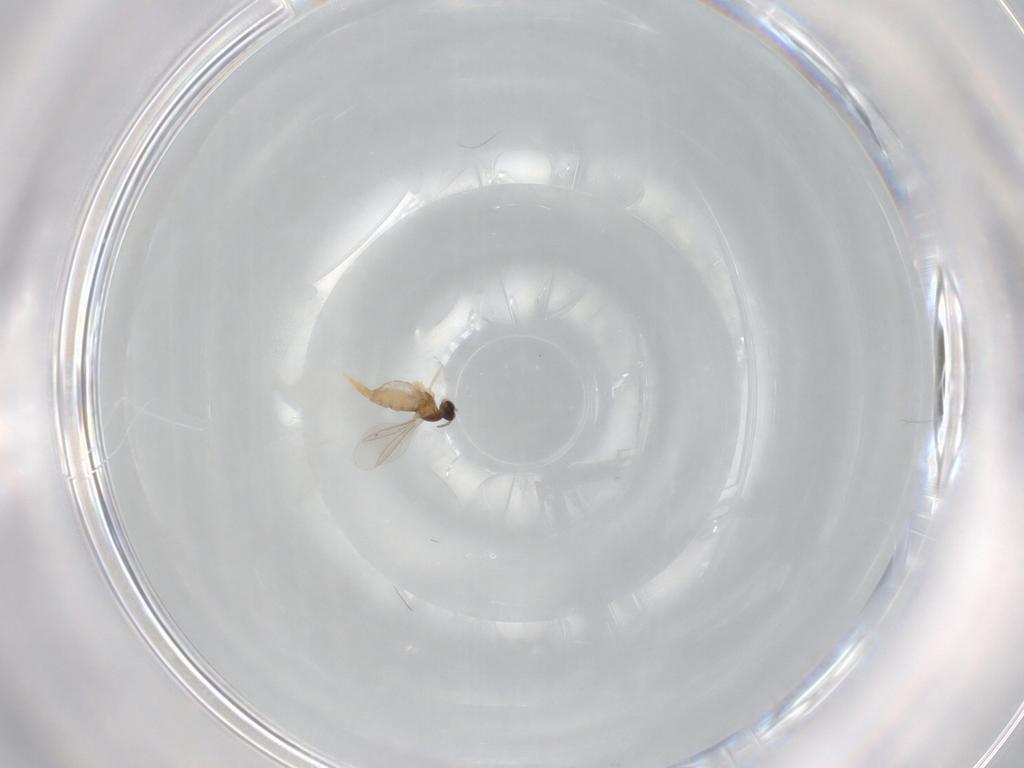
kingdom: Animalia
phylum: Arthropoda
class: Insecta
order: Diptera
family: Cecidomyiidae
